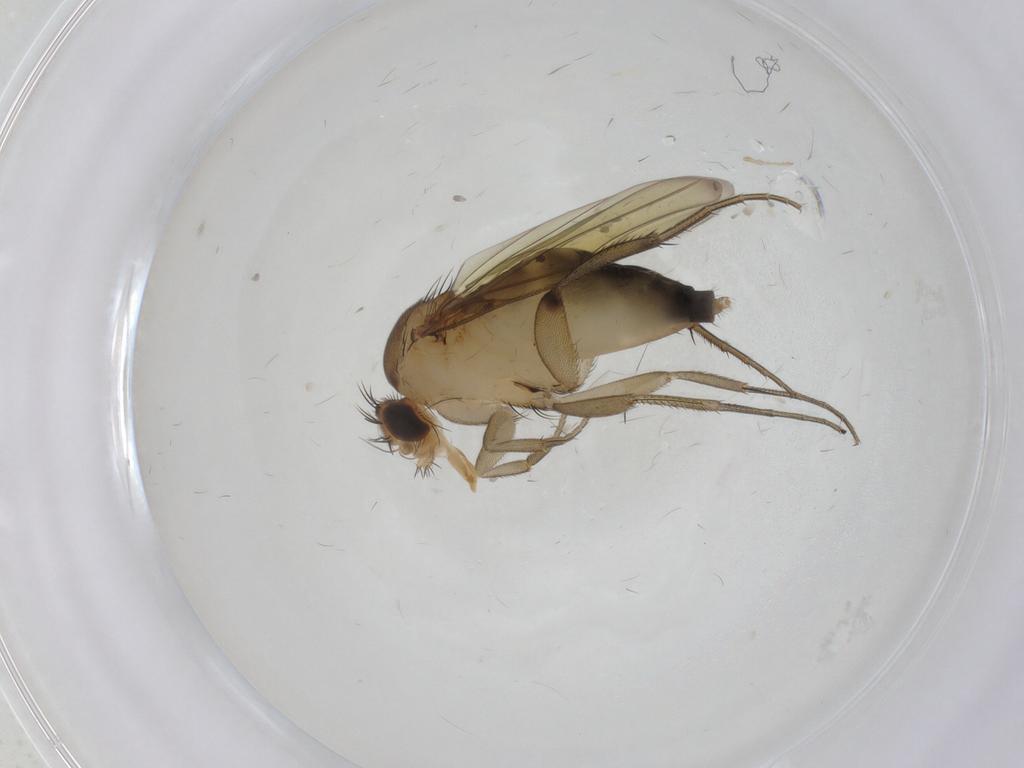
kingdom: Animalia
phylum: Arthropoda
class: Insecta
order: Diptera
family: Phoridae
